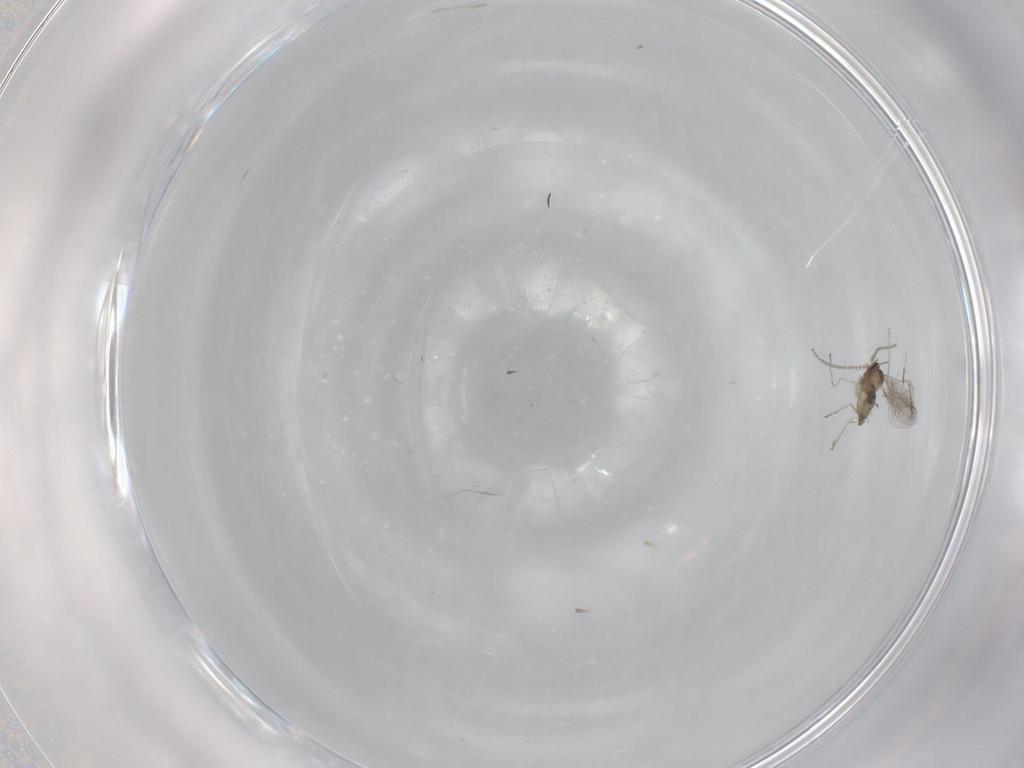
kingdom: Animalia
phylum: Arthropoda
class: Insecta
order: Diptera
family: Cecidomyiidae
